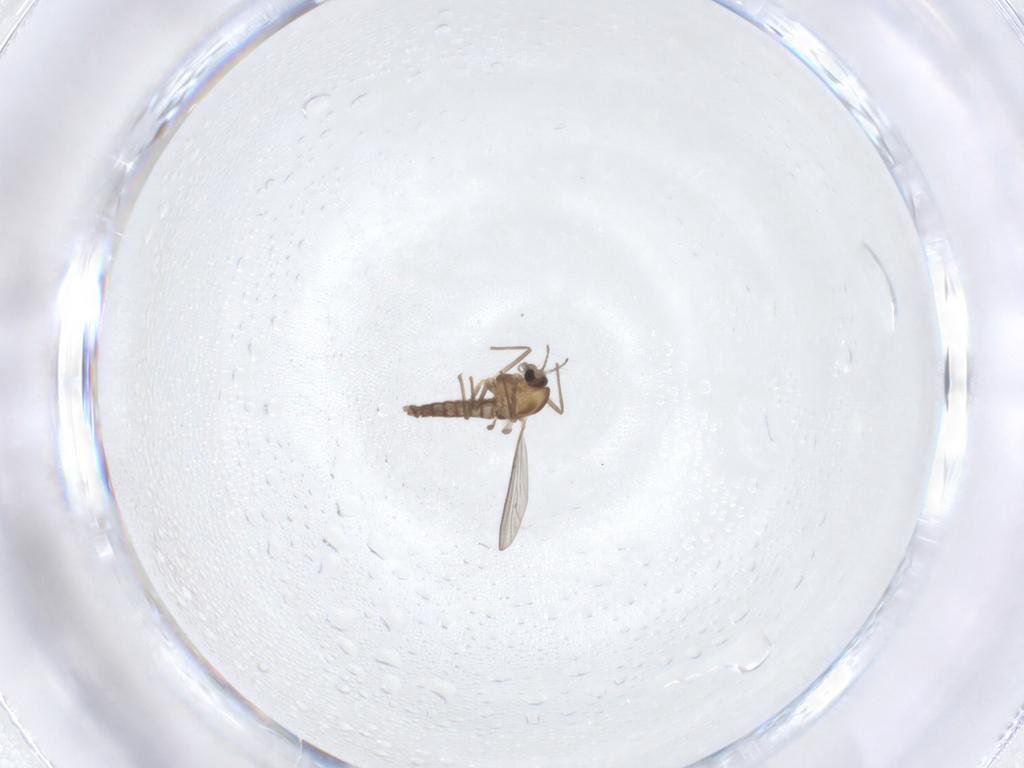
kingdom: Animalia
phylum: Arthropoda
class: Insecta
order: Diptera
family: Chironomidae
